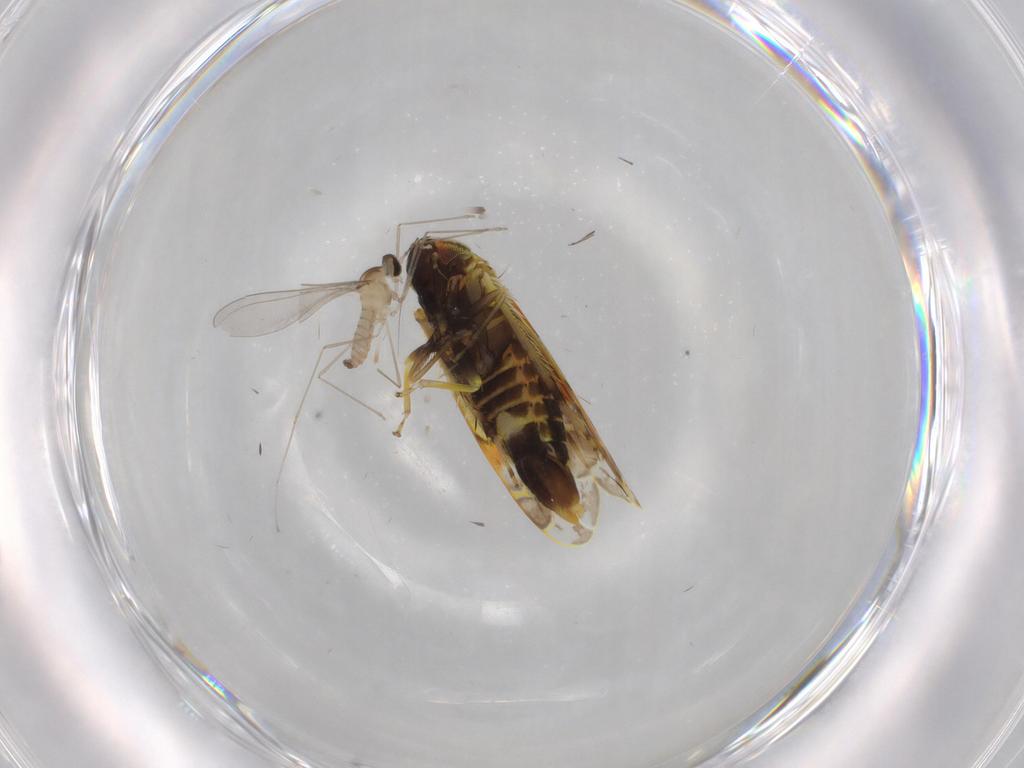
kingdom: Animalia
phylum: Arthropoda
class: Insecta
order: Diptera
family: Cecidomyiidae
